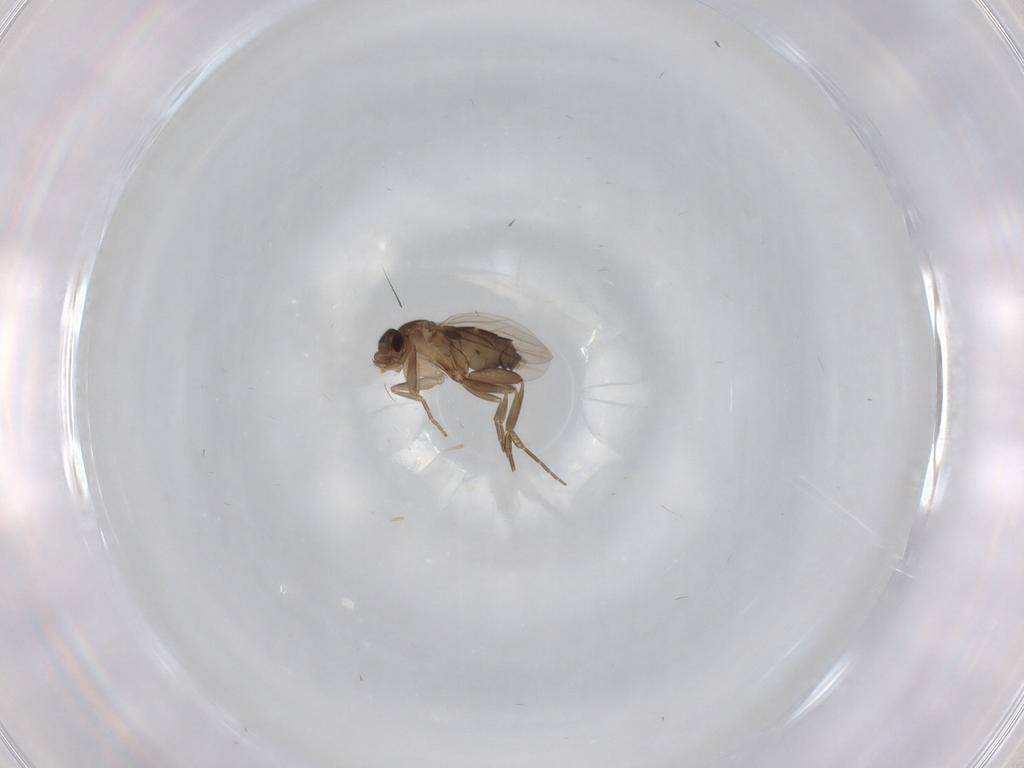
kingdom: Animalia
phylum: Arthropoda
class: Insecta
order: Diptera
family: Phoridae
